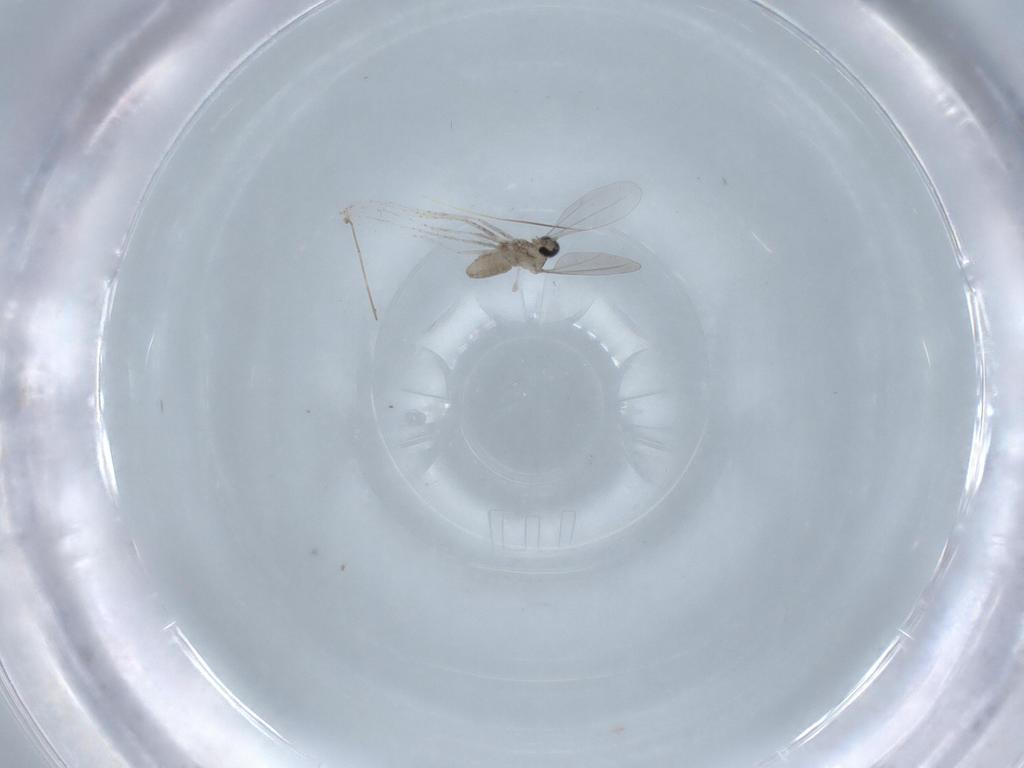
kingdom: Animalia
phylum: Arthropoda
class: Insecta
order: Diptera
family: Cecidomyiidae
